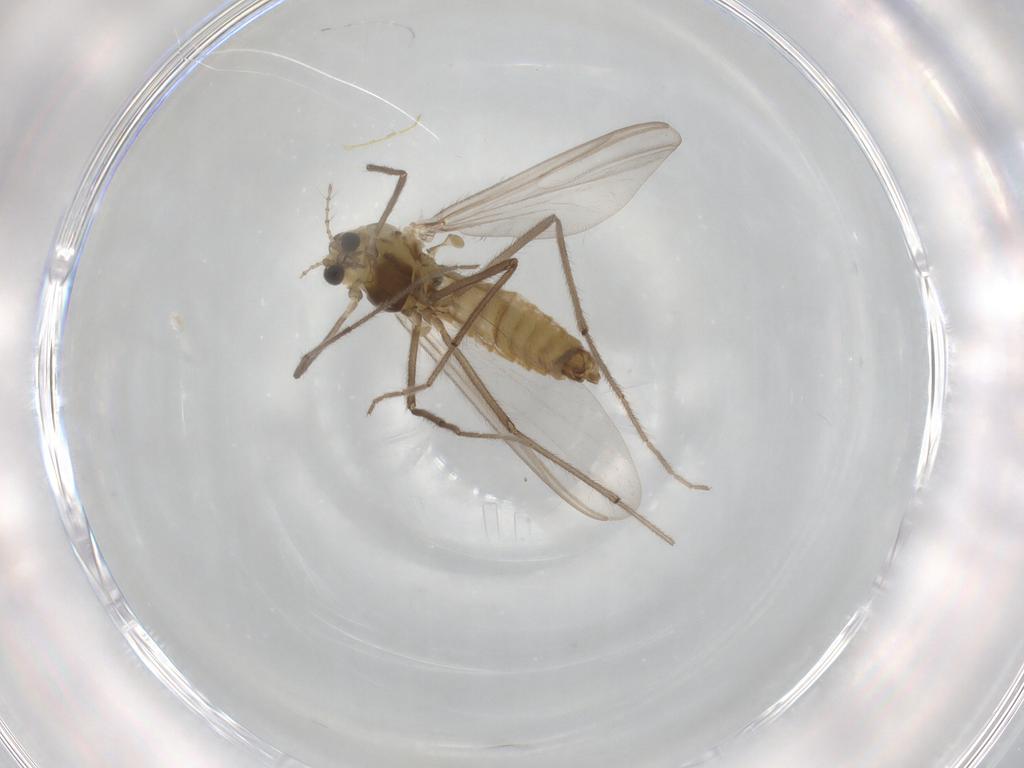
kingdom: Animalia
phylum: Arthropoda
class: Insecta
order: Diptera
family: Chironomidae
